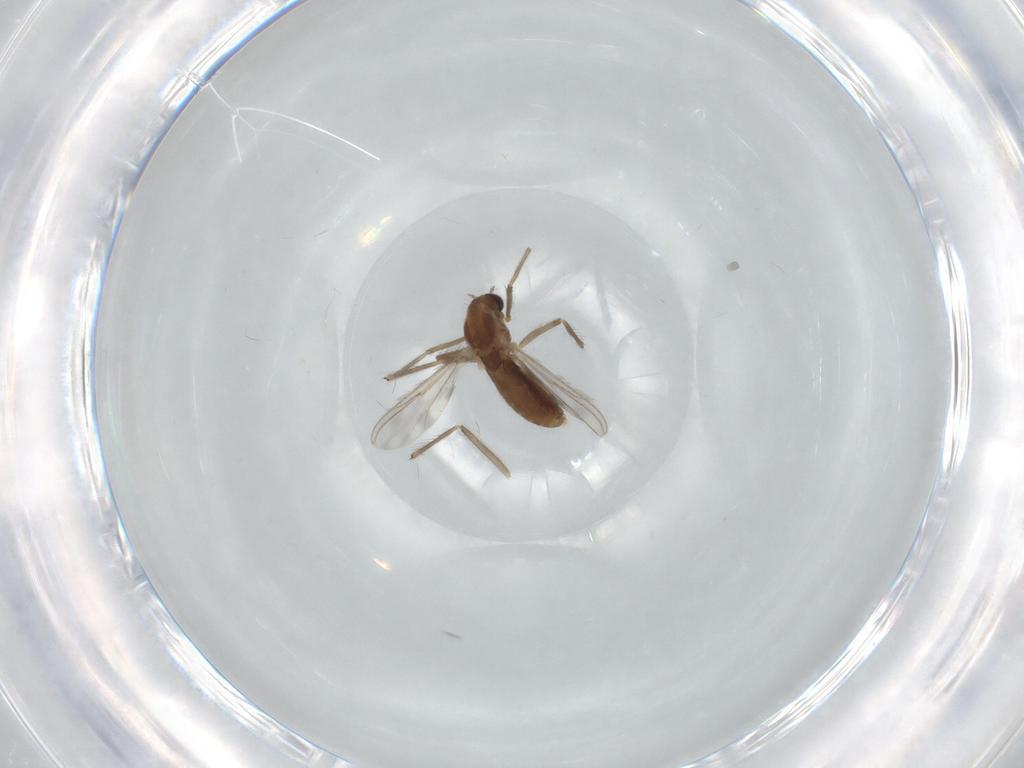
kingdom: Animalia
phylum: Arthropoda
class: Insecta
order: Diptera
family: Chironomidae
